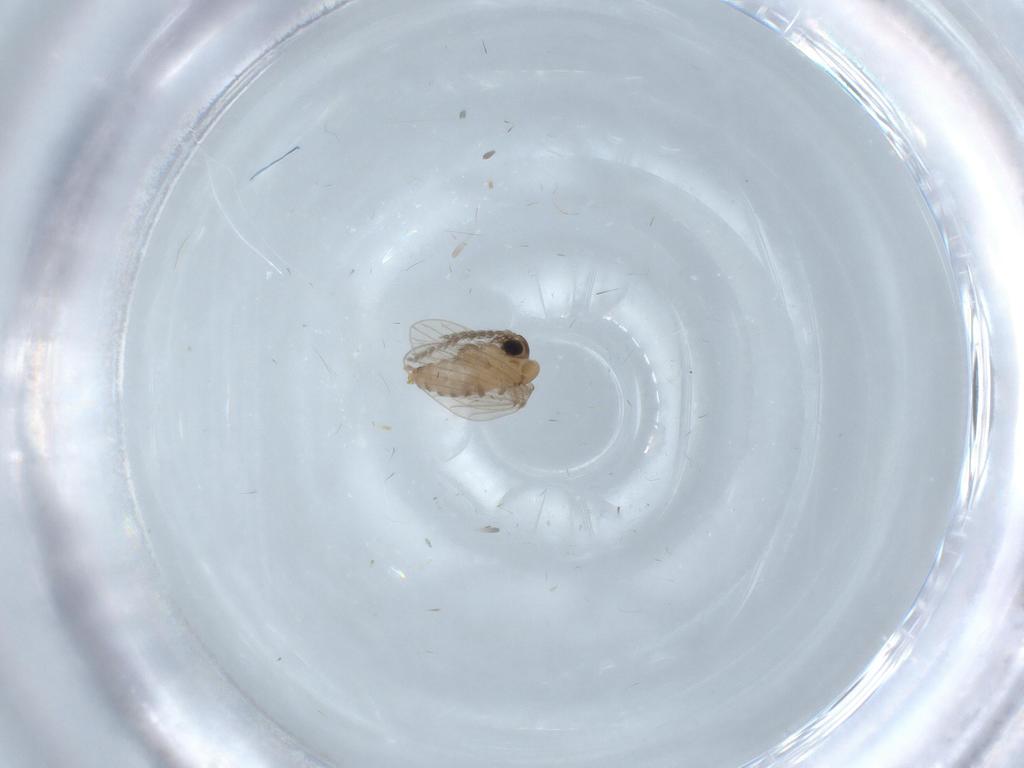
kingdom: Animalia
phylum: Arthropoda
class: Insecta
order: Diptera
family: Psychodidae
